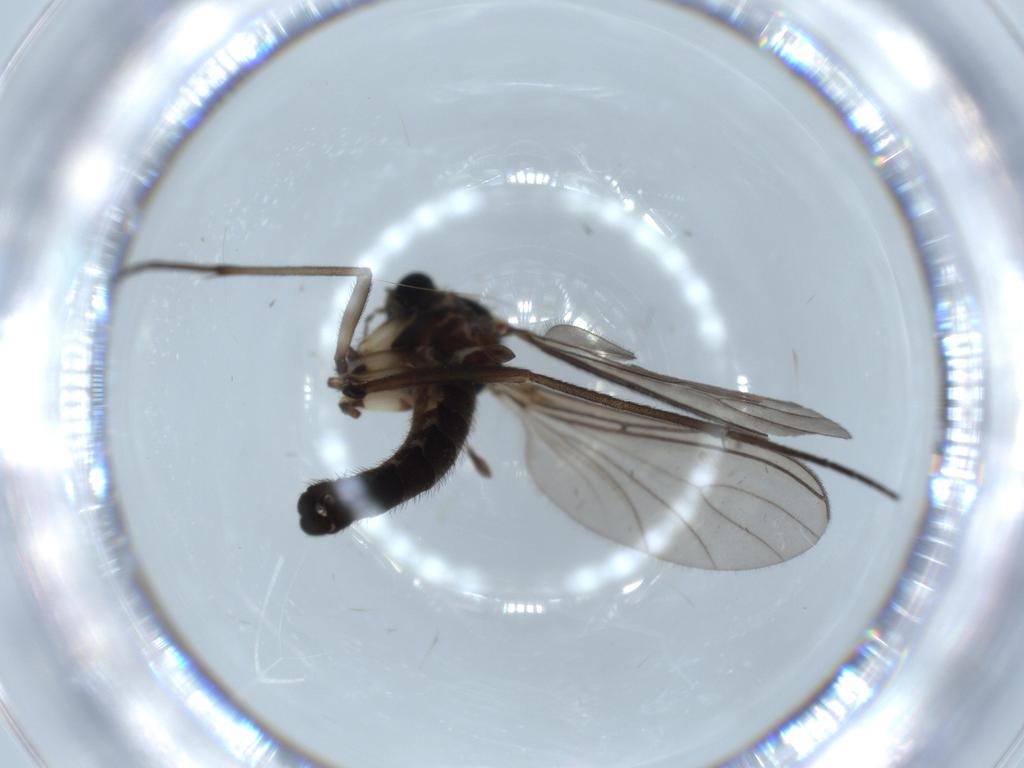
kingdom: Animalia
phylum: Arthropoda
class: Insecta
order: Diptera
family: Sciaridae
